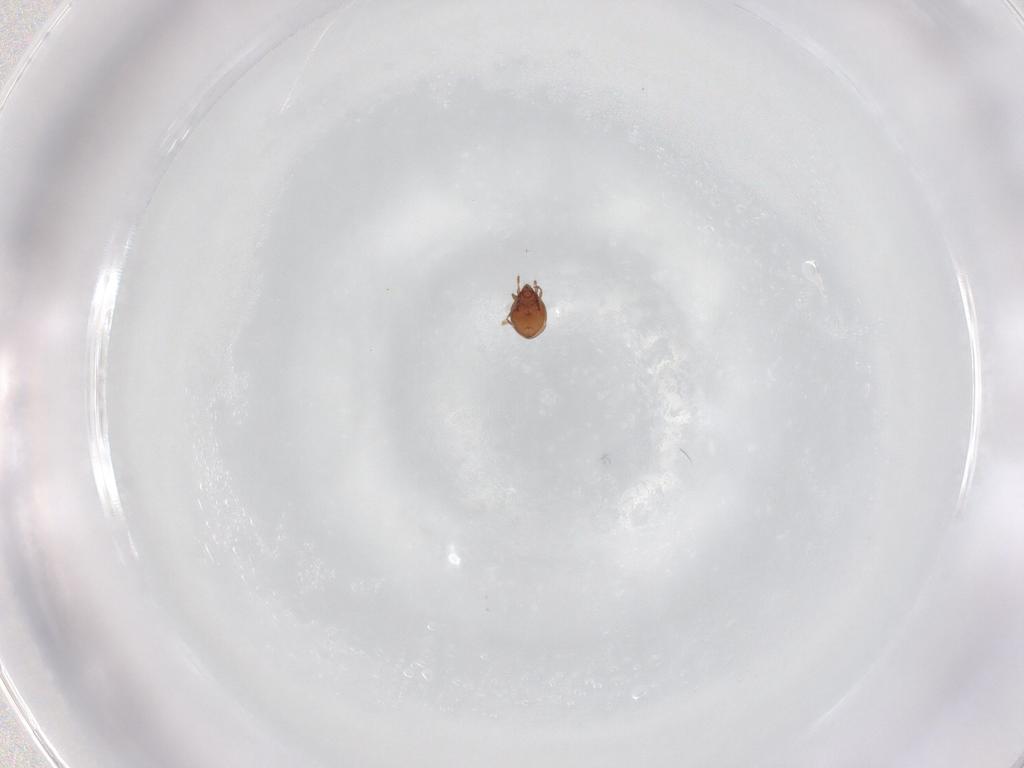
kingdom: Animalia
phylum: Arthropoda
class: Arachnida
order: Sarcoptiformes
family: Oribatulidae
